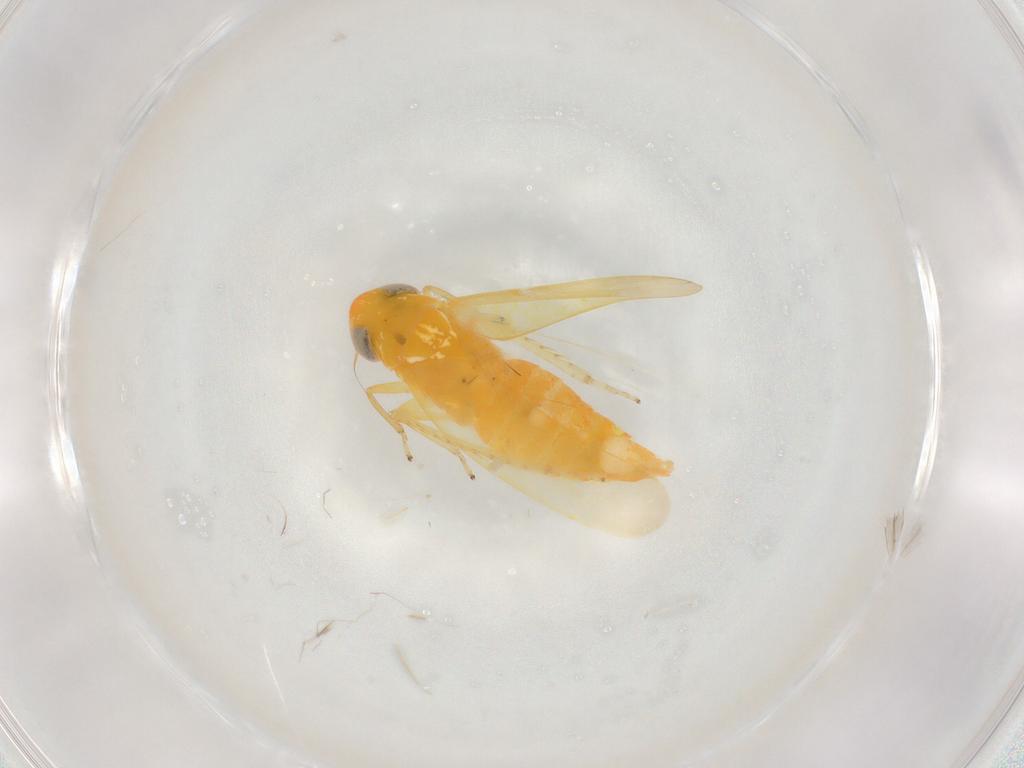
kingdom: Animalia
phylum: Arthropoda
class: Insecta
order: Hemiptera
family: Cicadellidae
